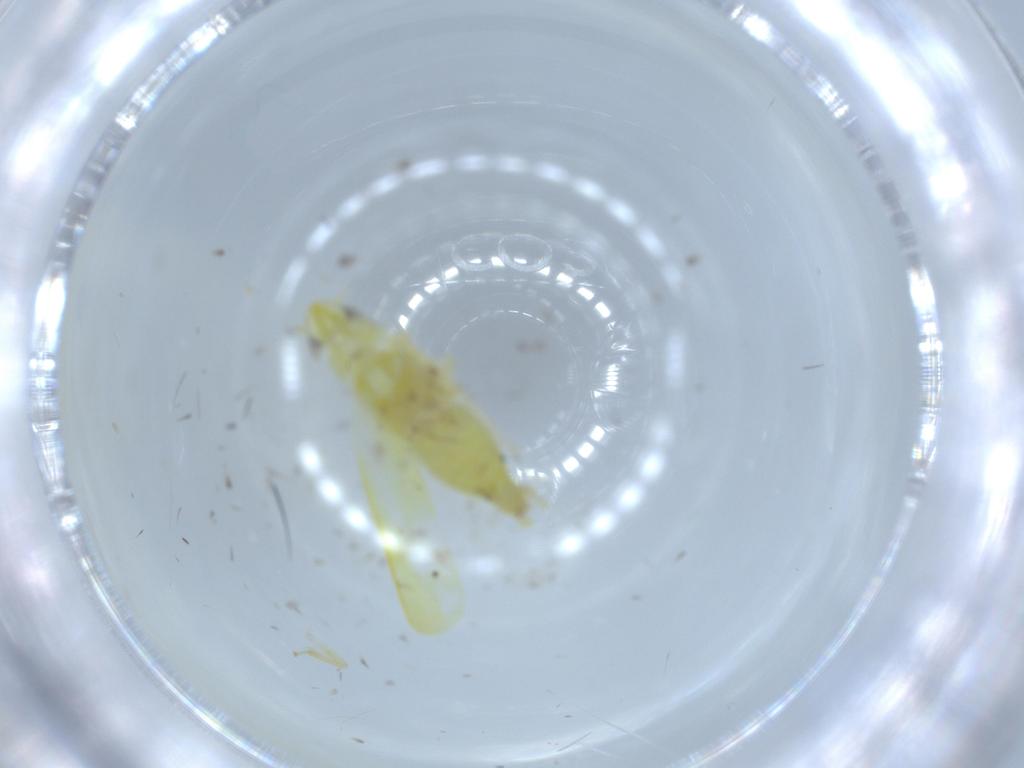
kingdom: Animalia
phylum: Arthropoda
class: Insecta
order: Hemiptera
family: Cicadellidae
